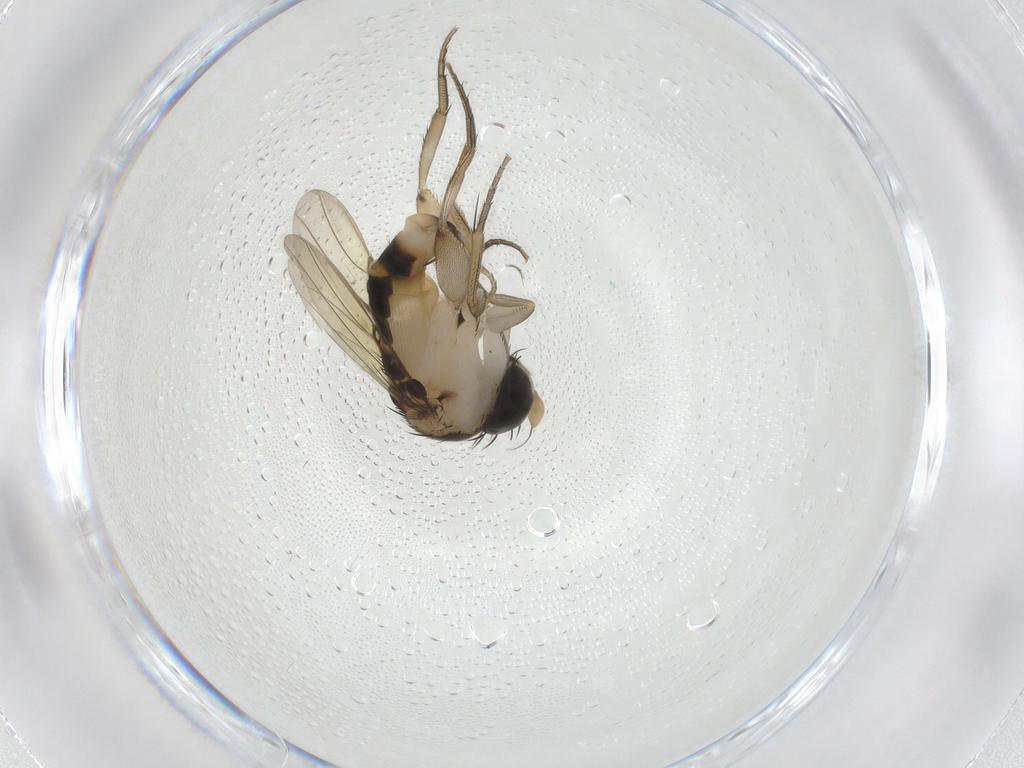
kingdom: Animalia
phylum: Arthropoda
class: Insecta
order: Diptera
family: Phoridae
